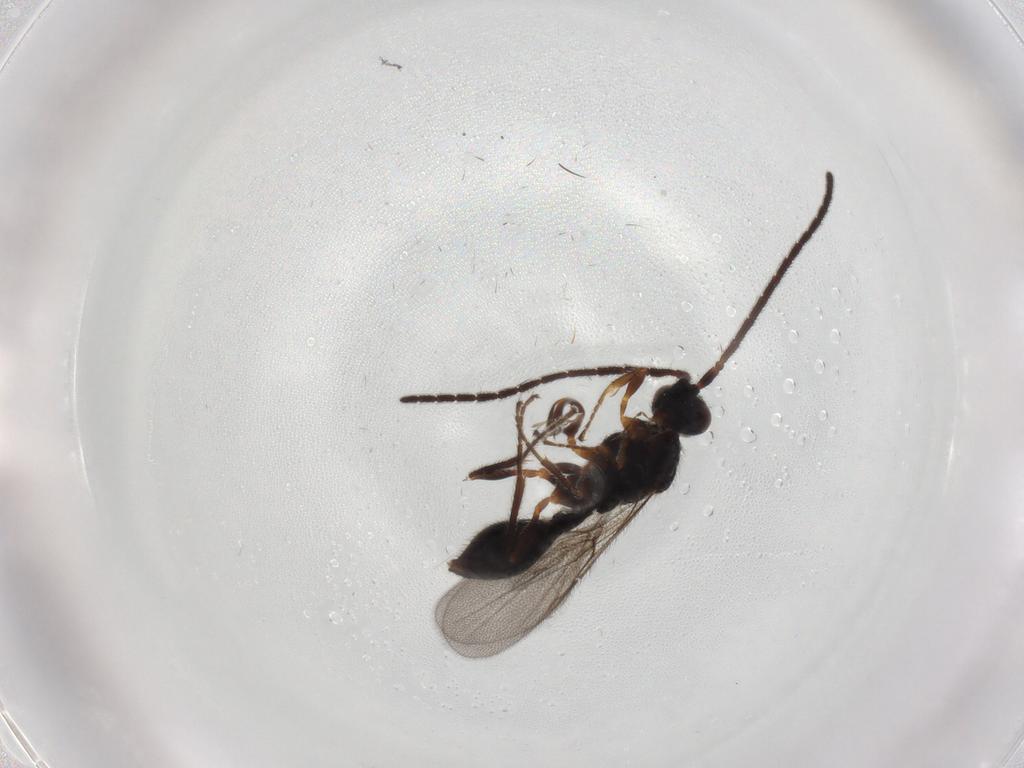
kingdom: Animalia
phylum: Arthropoda
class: Insecta
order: Hymenoptera
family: Diapriidae
